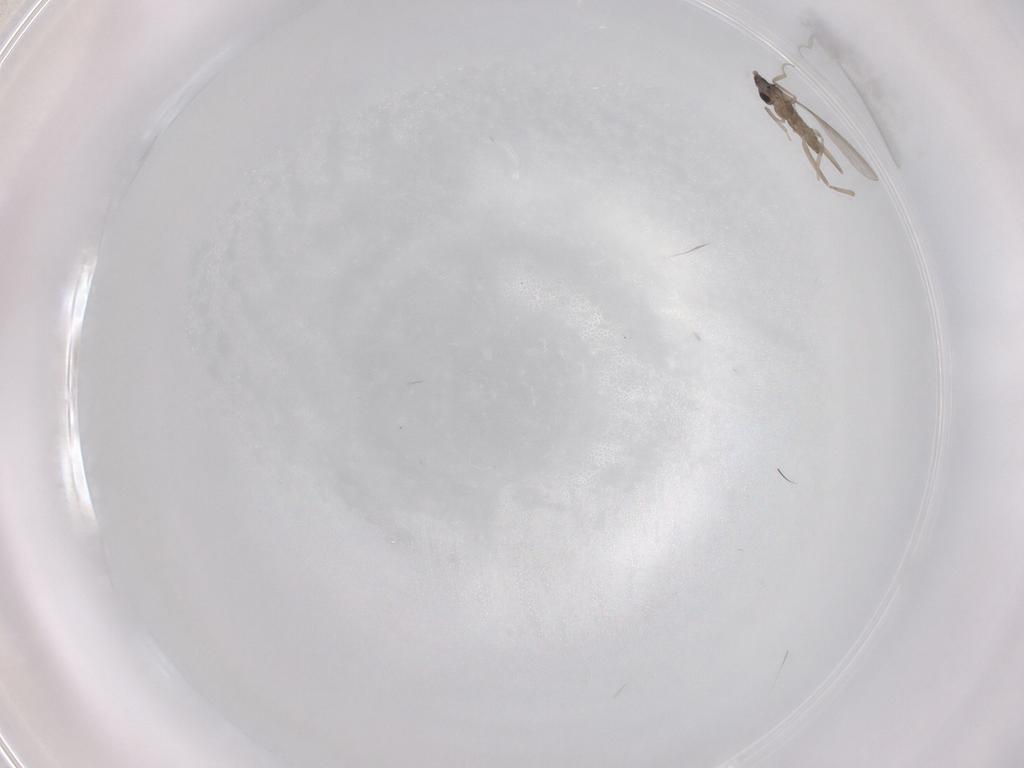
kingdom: Animalia
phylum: Arthropoda
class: Insecta
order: Diptera
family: Cecidomyiidae
